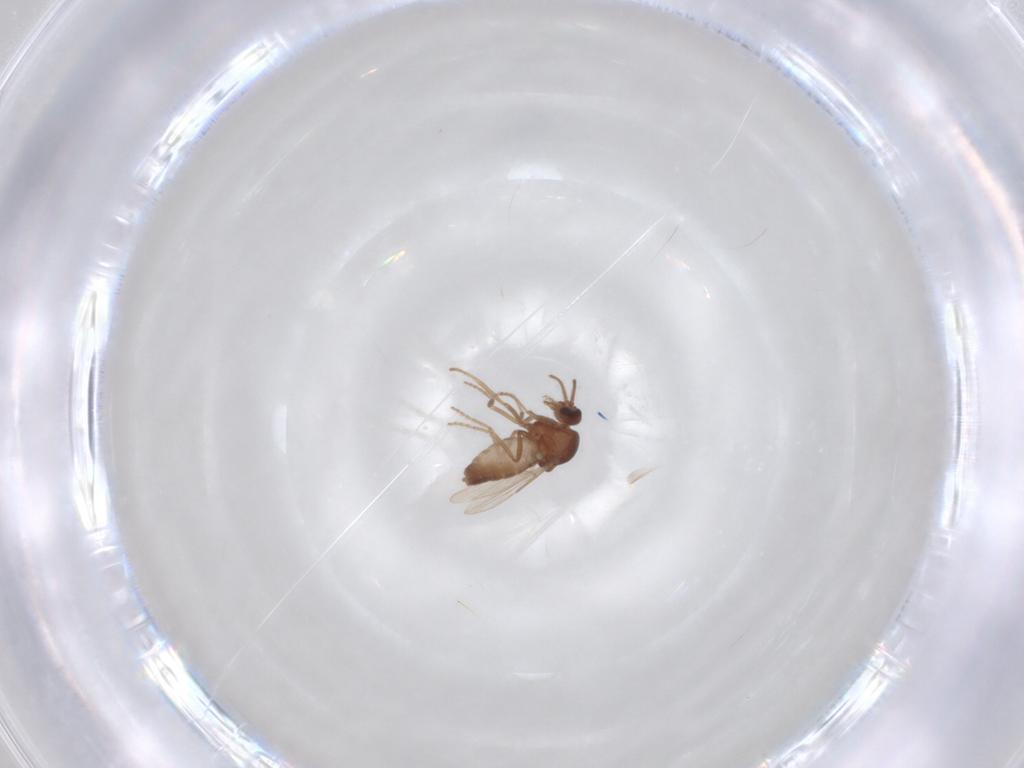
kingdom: Animalia
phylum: Arthropoda
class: Insecta
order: Diptera
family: Ceratopogonidae
